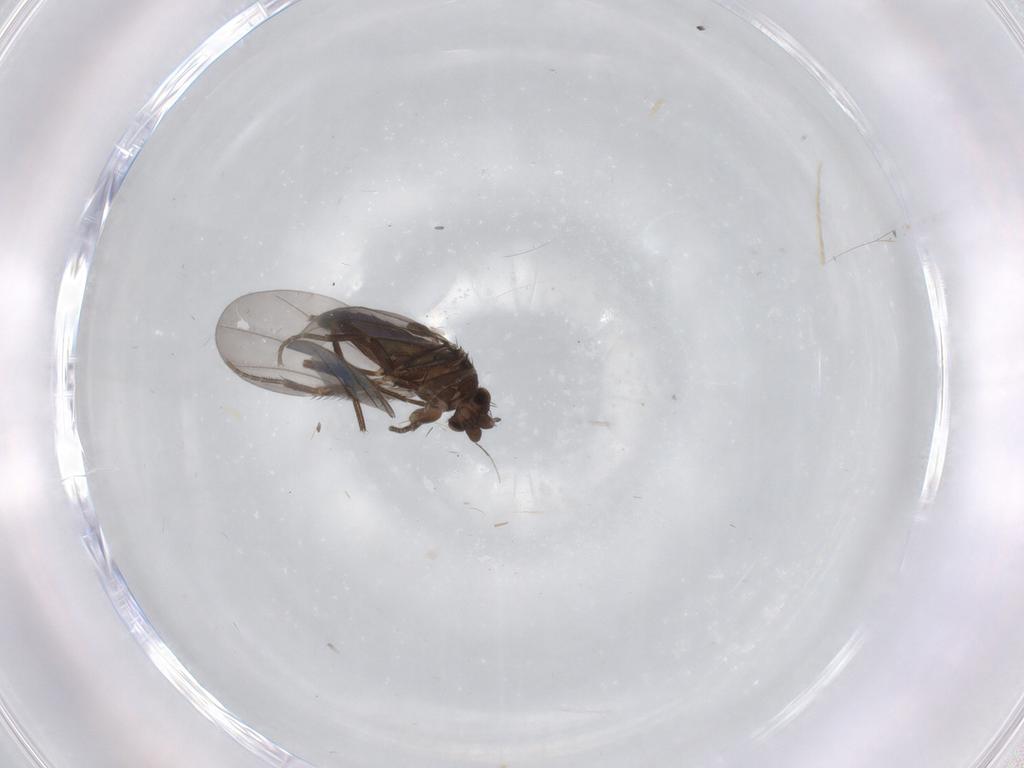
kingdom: Animalia
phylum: Arthropoda
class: Insecta
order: Diptera
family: Phoridae
